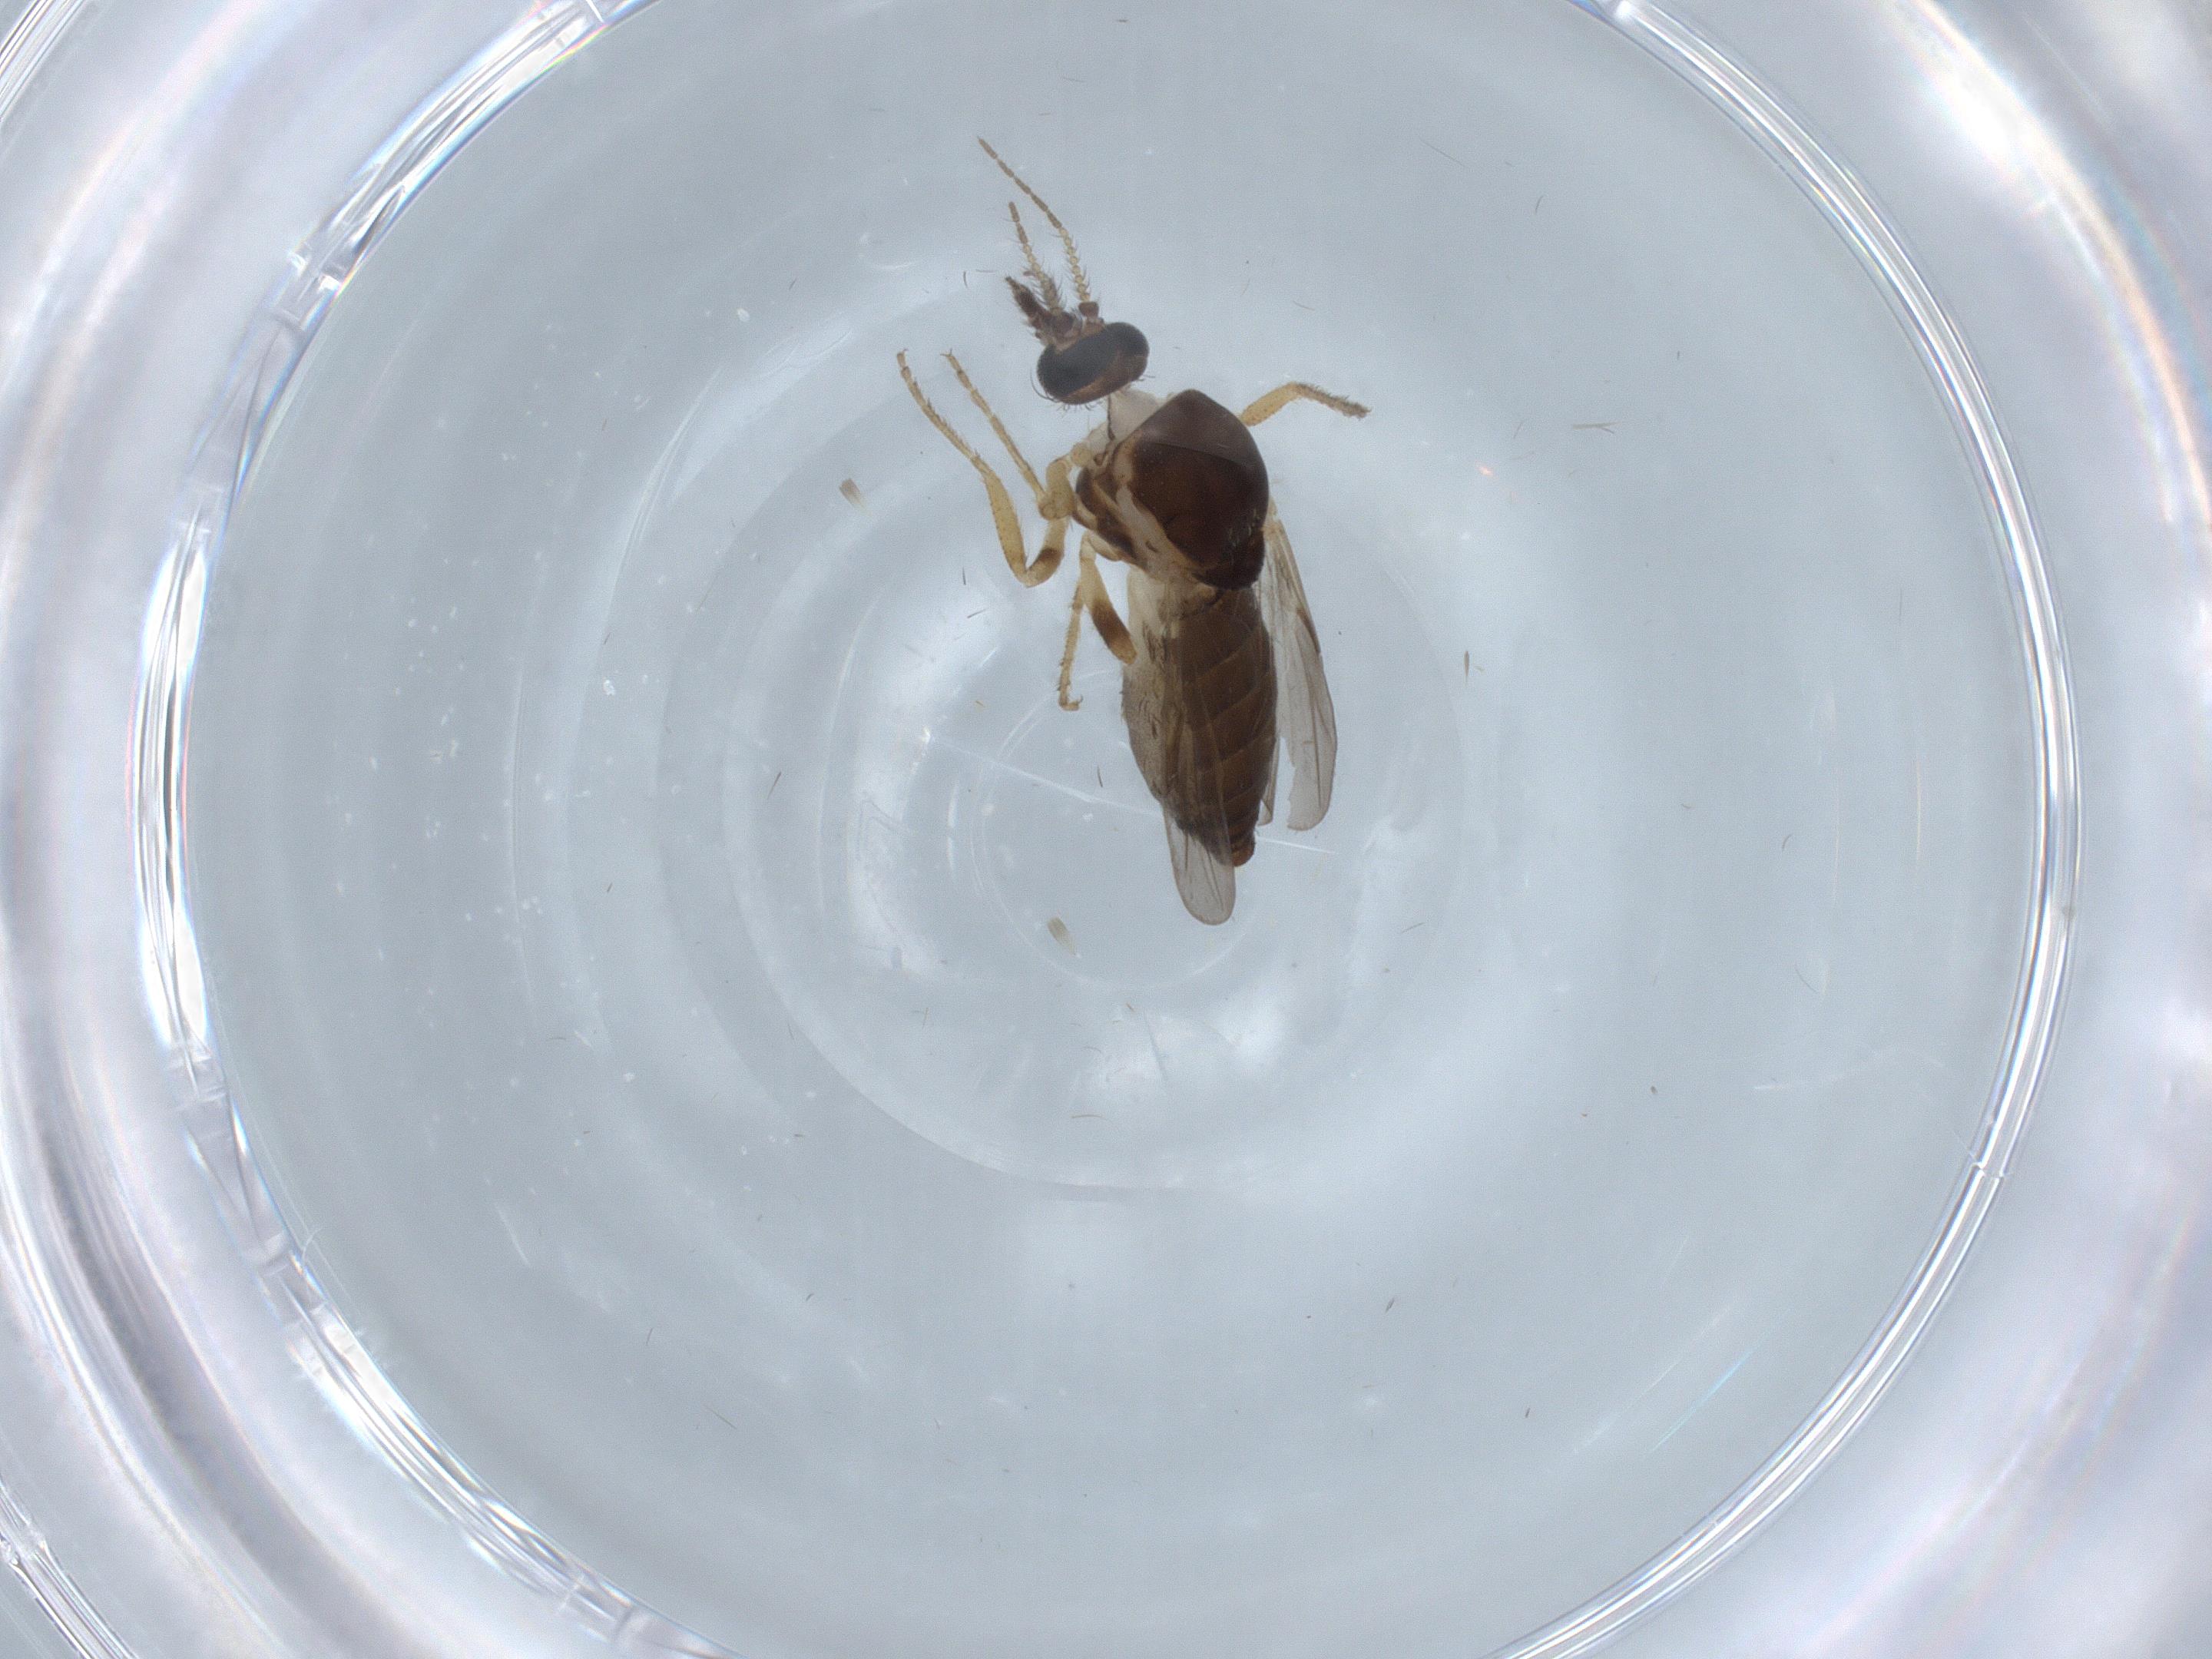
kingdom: Animalia
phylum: Arthropoda
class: Insecta
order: Diptera
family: Ceratopogonidae
